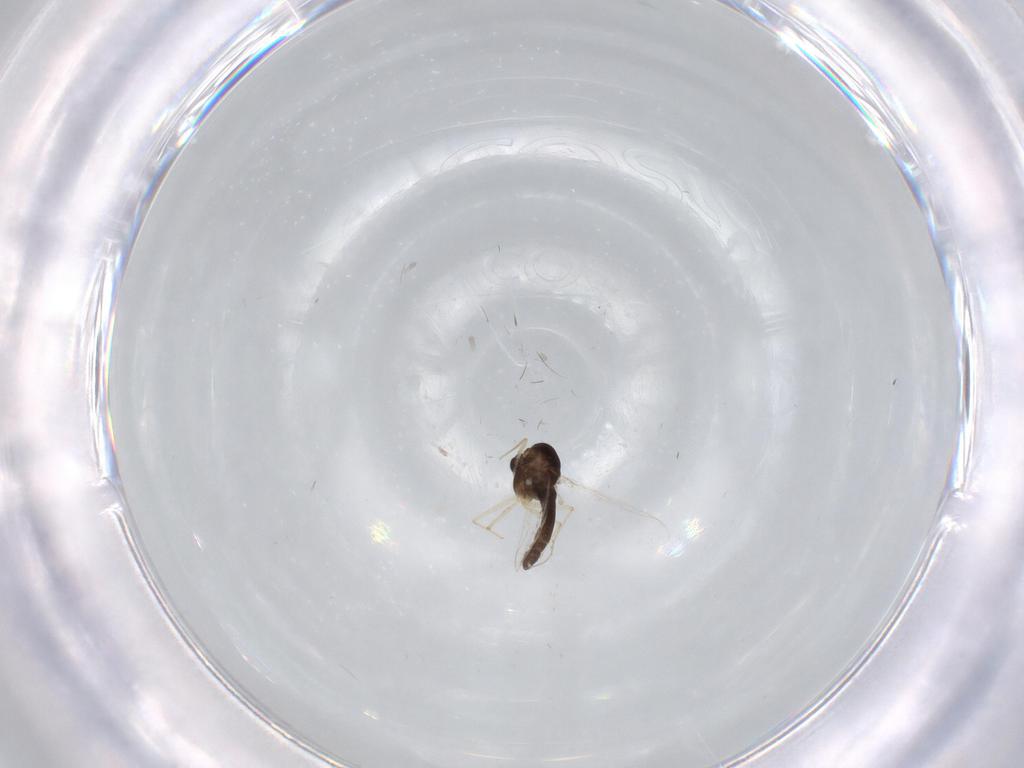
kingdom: Animalia
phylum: Arthropoda
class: Insecta
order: Diptera
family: Chironomidae
